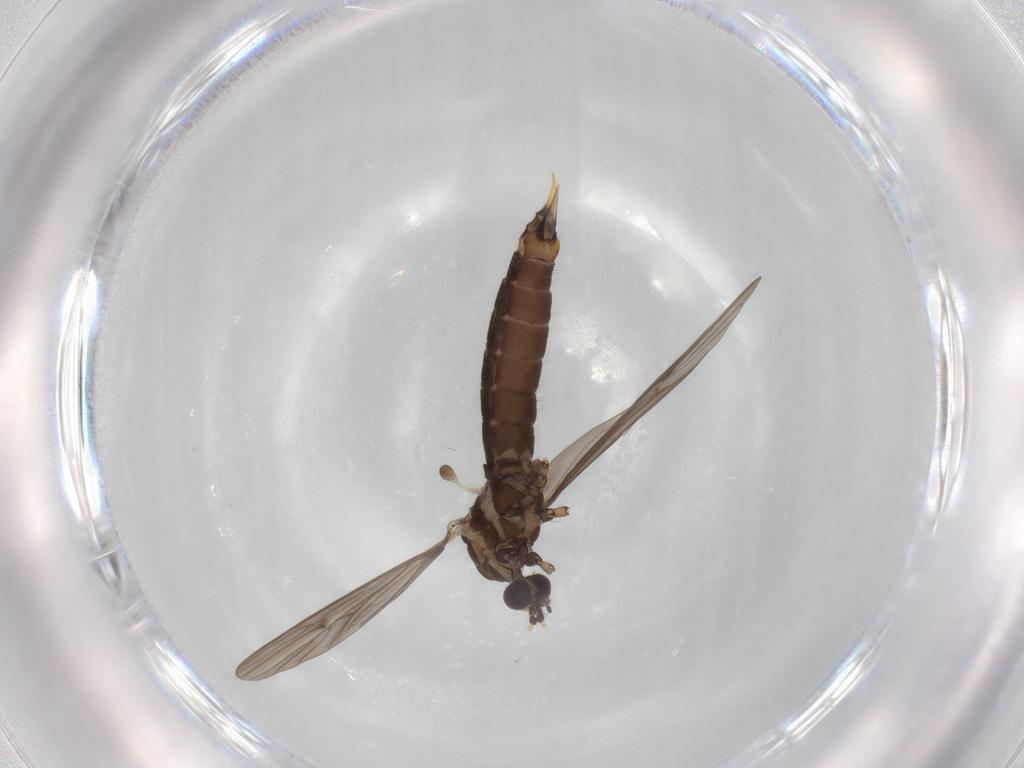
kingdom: Animalia
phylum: Arthropoda
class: Insecta
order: Diptera
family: Limoniidae
